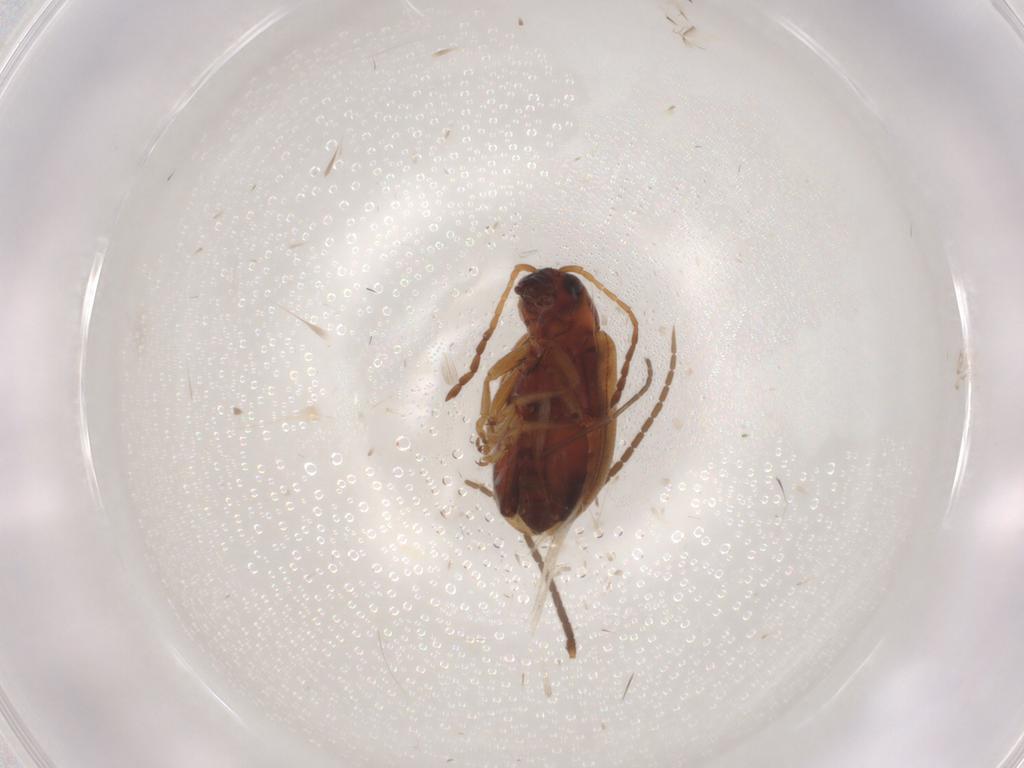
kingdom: Animalia
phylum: Arthropoda
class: Insecta
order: Coleoptera
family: Chrysomelidae
